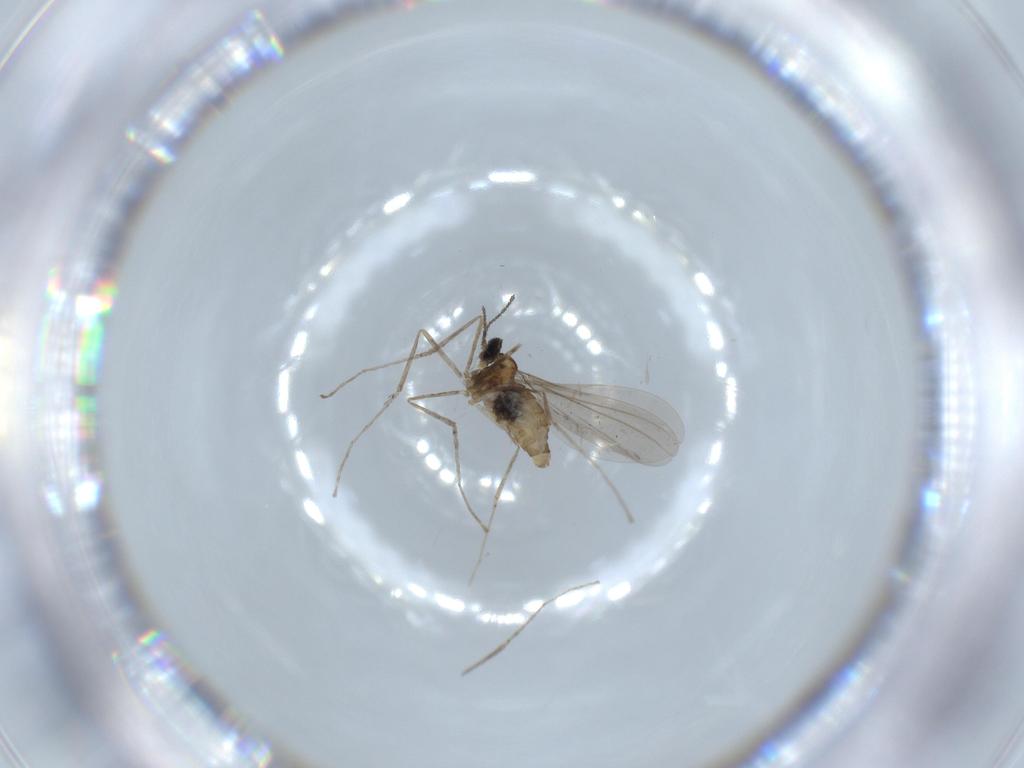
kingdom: Animalia
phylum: Arthropoda
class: Insecta
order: Diptera
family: Cecidomyiidae
